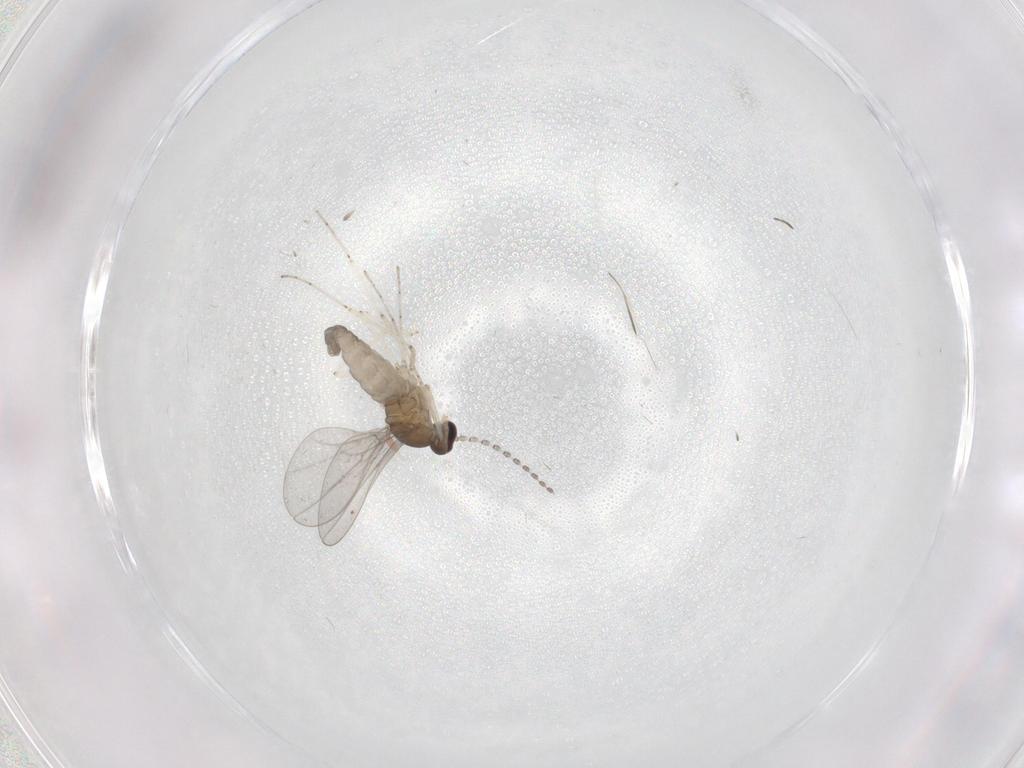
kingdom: Animalia
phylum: Arthropoda
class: Insecta
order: Diptera
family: Cecidomyiidae
